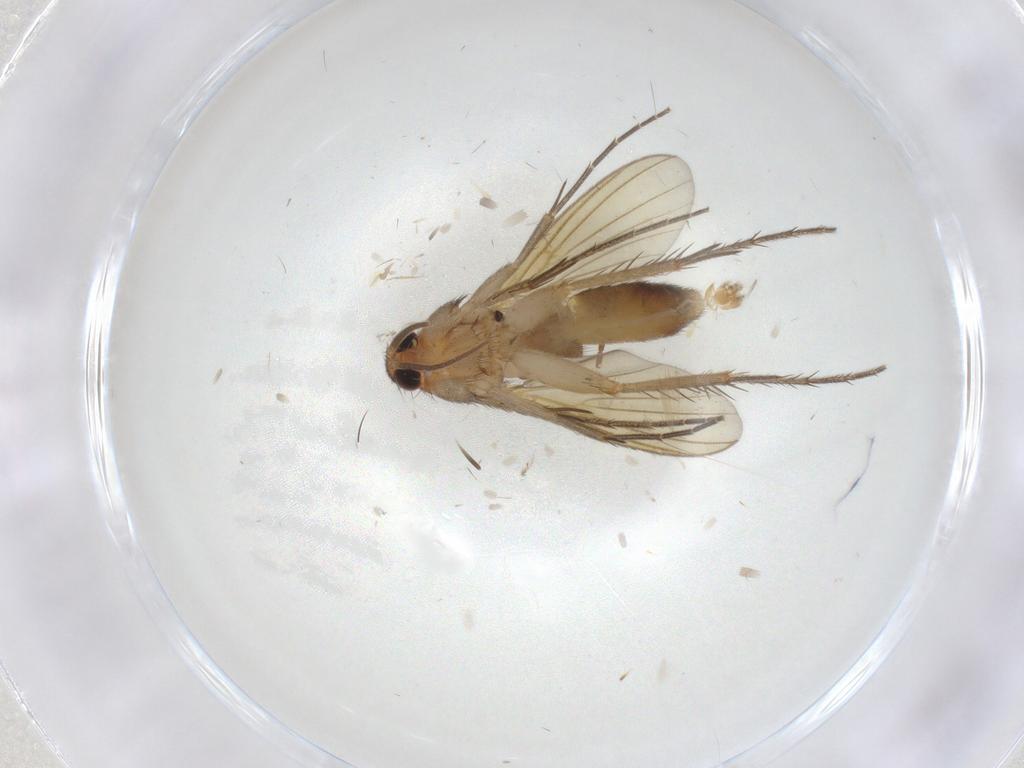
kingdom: Animalia
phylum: Arthropoda
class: Insecta
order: Diptera
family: Mycetophilidae
